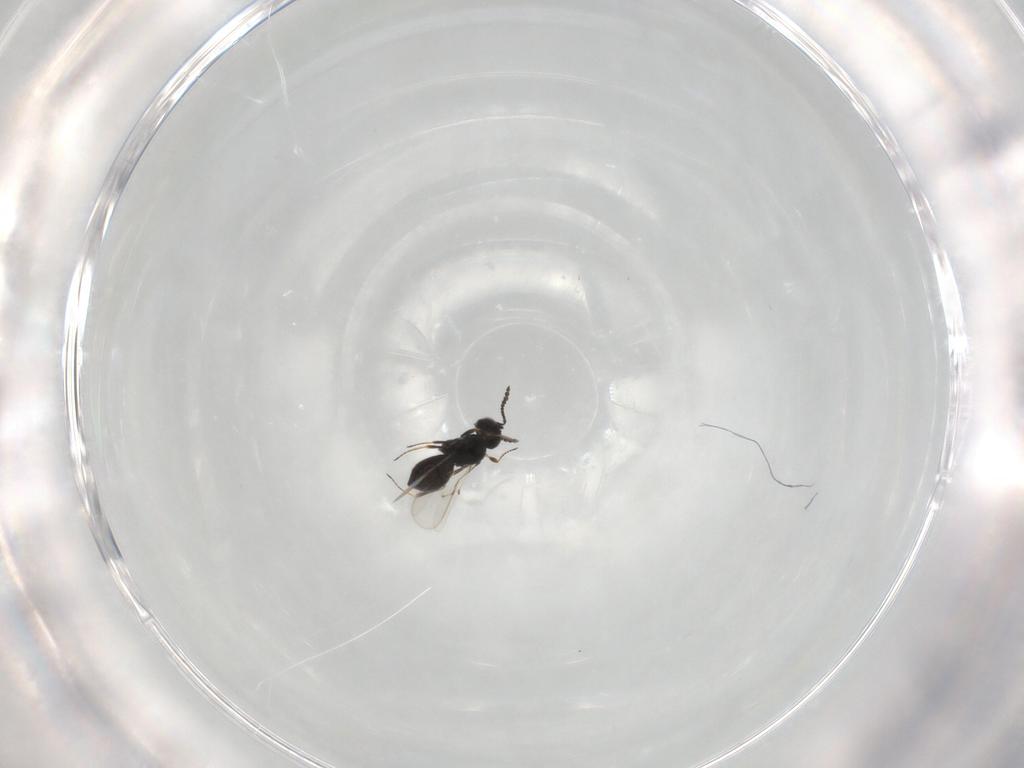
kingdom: Animalia
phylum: Arthropoda
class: Insecta
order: Hymenoptera
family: Scelionidae
